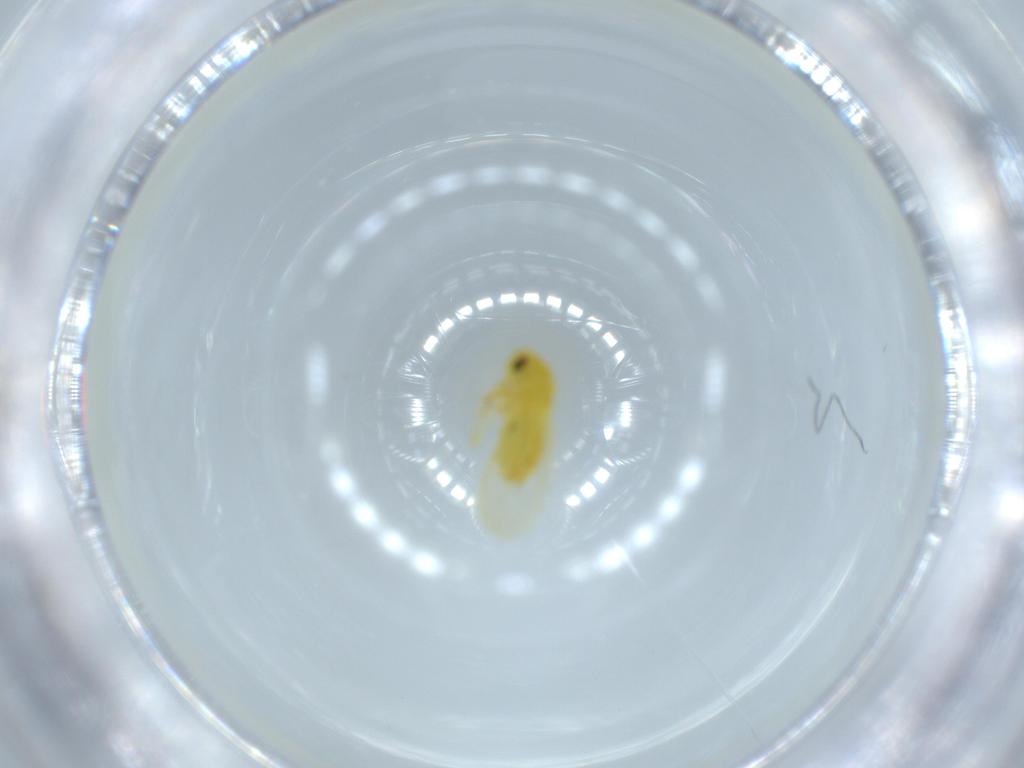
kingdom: Animalia
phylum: Arthropoda
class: Insecta
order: Hemiptera
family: Aleyrodidae
